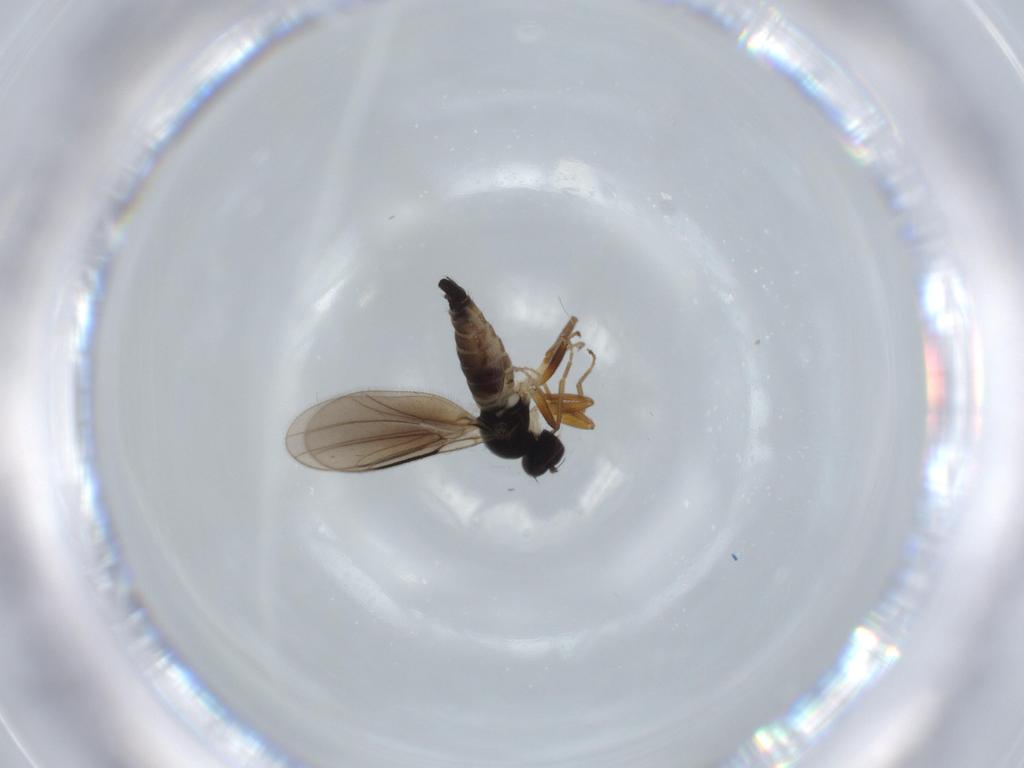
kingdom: Animalia
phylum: Arthropoda
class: Insecta
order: Diptera
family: Hybotidae
